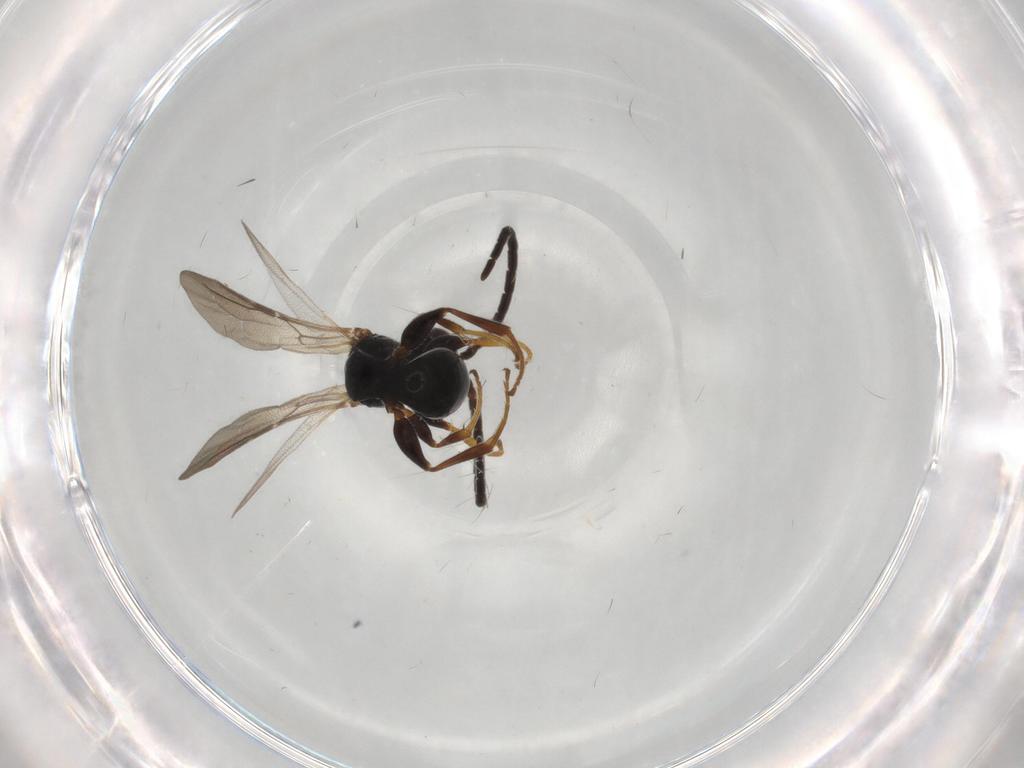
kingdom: Animalia
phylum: Arthropoda
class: Insecta
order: Hymenoptera
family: Bethylidae
